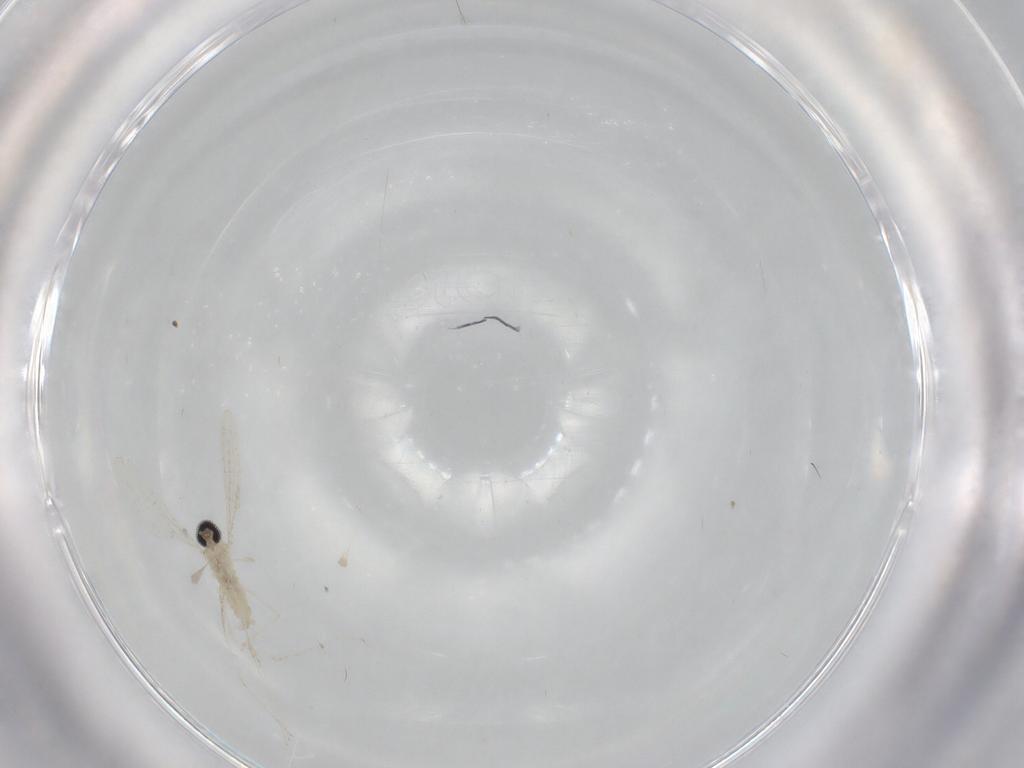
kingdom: Animalia
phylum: Arthropoda
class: Insecta
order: Diptera
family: Cecidomyiidae
